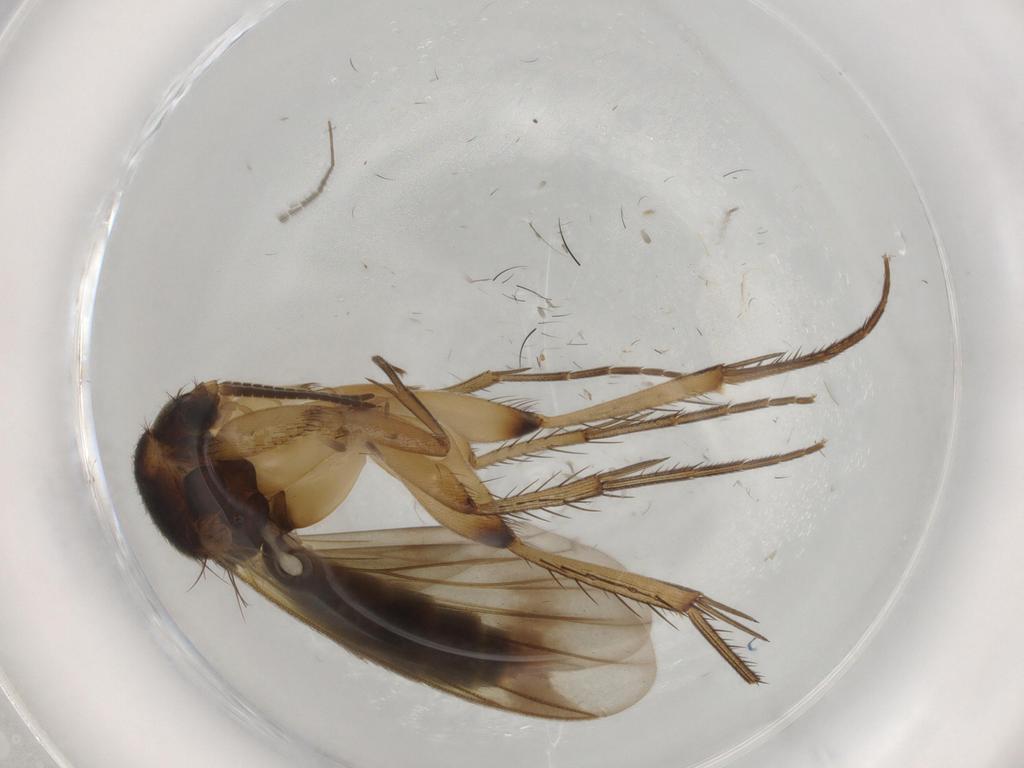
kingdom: Animalia
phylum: Arthropoda
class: Insecta
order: Diptera
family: Mycetophilidae
